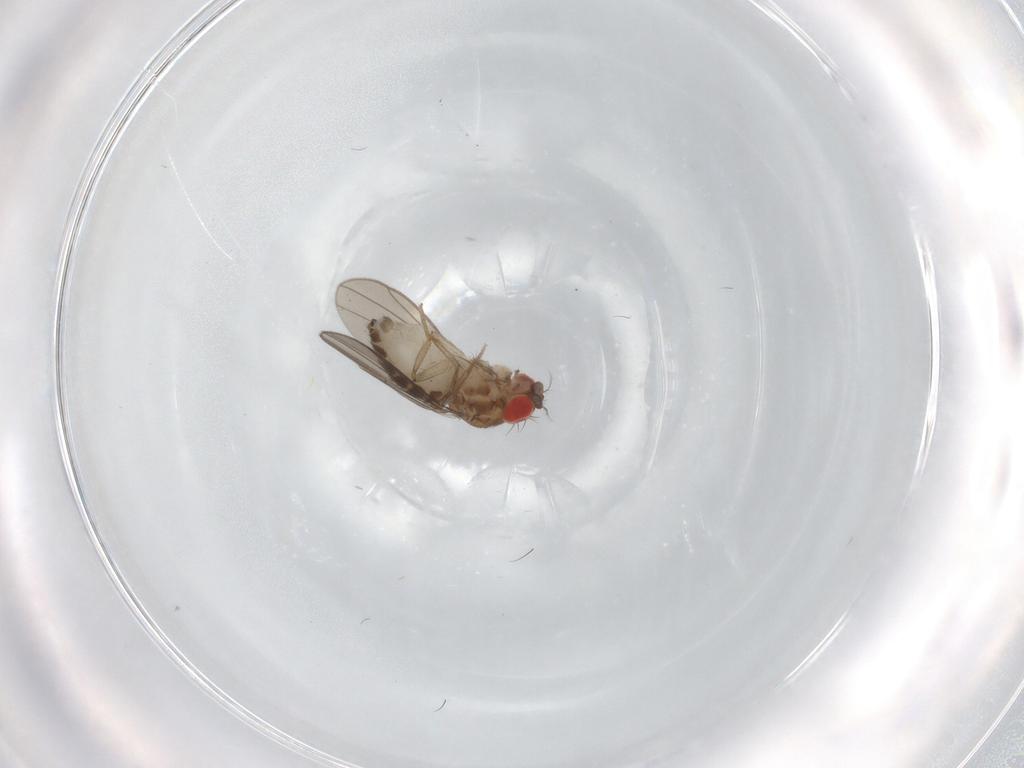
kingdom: Animalia
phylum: Arthropoda
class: Insecta
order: Diptera
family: Drosophilidae
